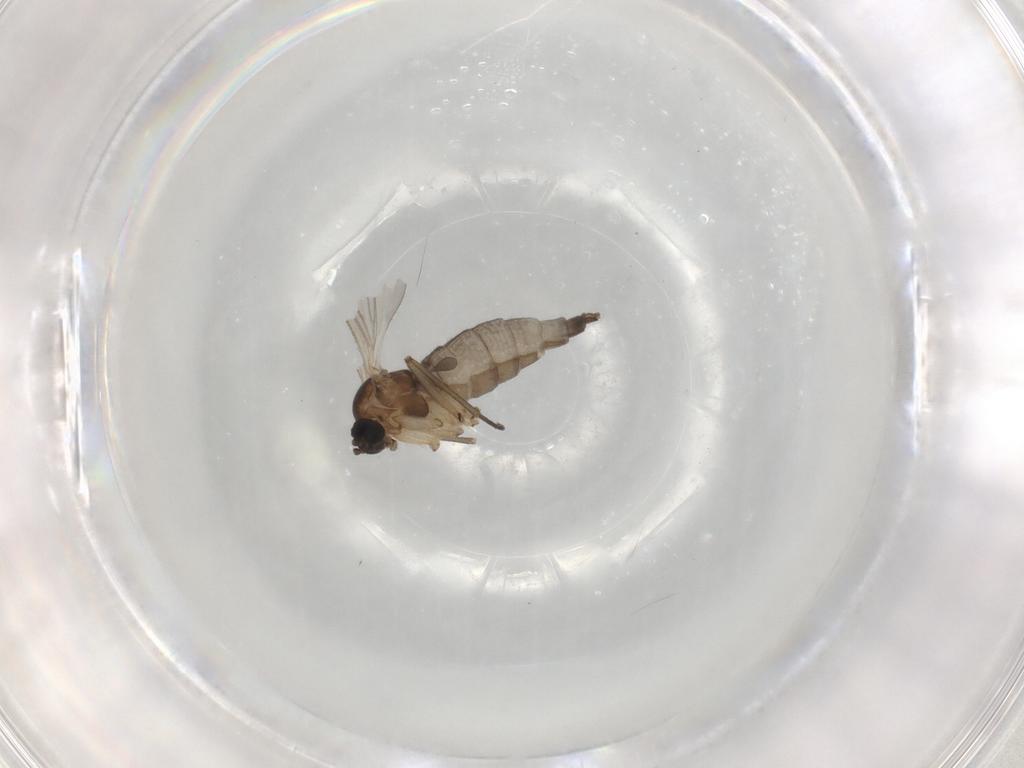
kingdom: Animalia
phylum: Arthropoda
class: Insecta
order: Diptera
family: Sciaridae
